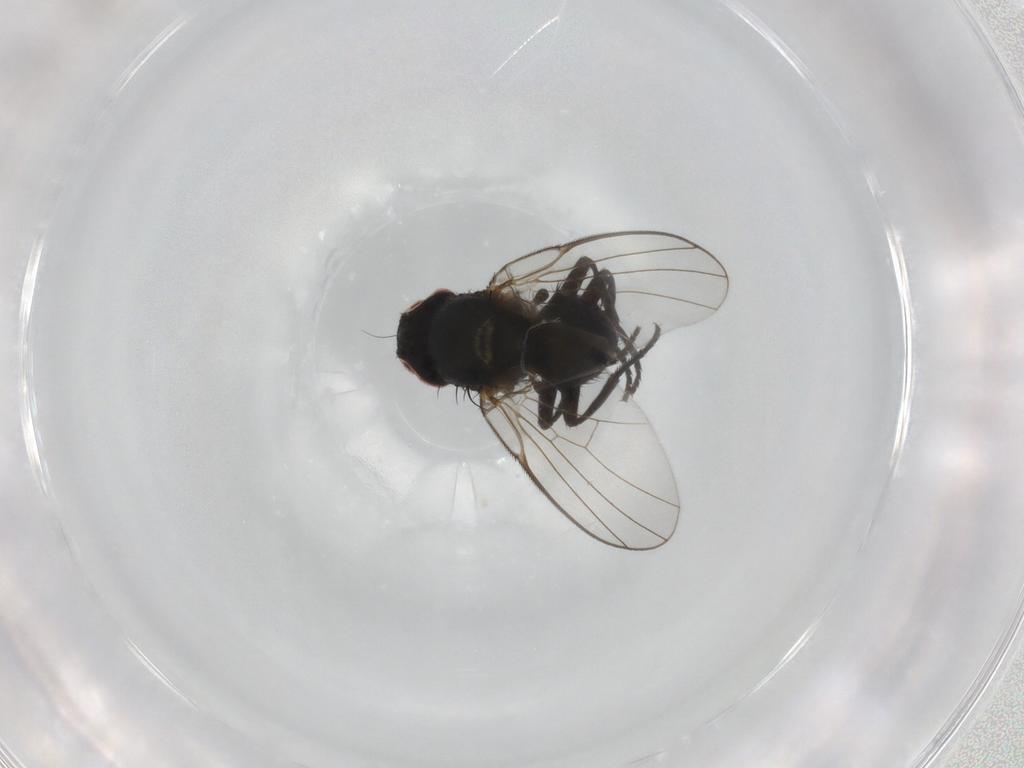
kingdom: Animalia
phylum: Arthropoda
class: Insecta
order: Diptera
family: Agromyzidae
